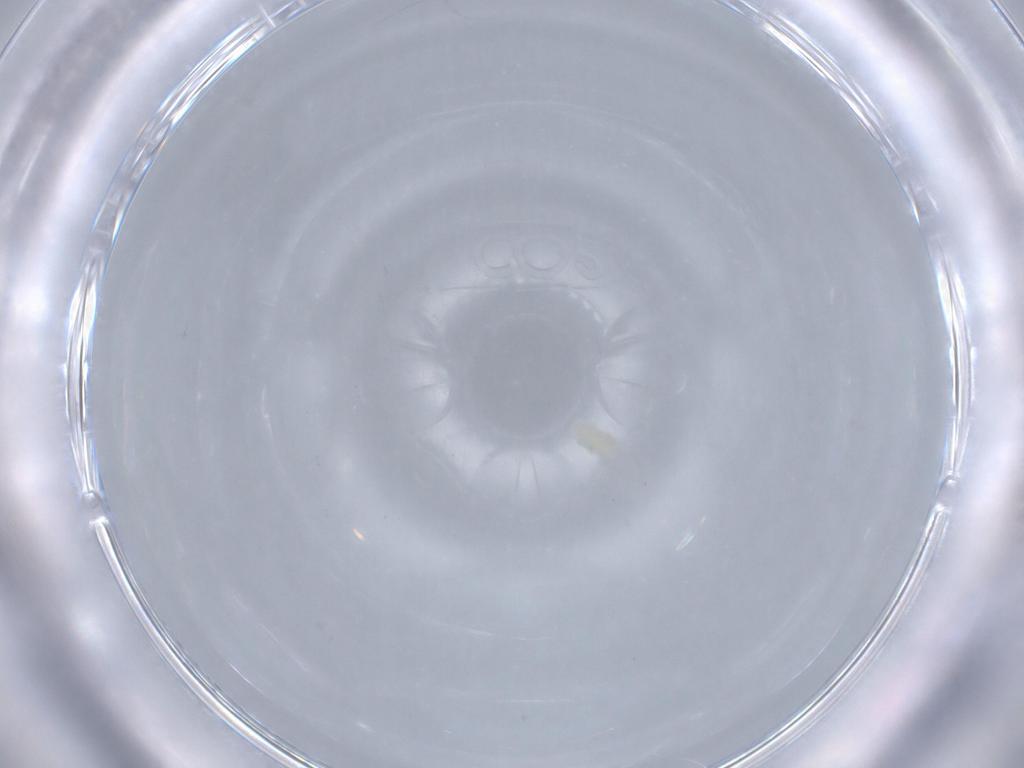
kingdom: Animalia
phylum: Arthropoda
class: Arachnida
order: Trombidiformes
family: Eupodidae
